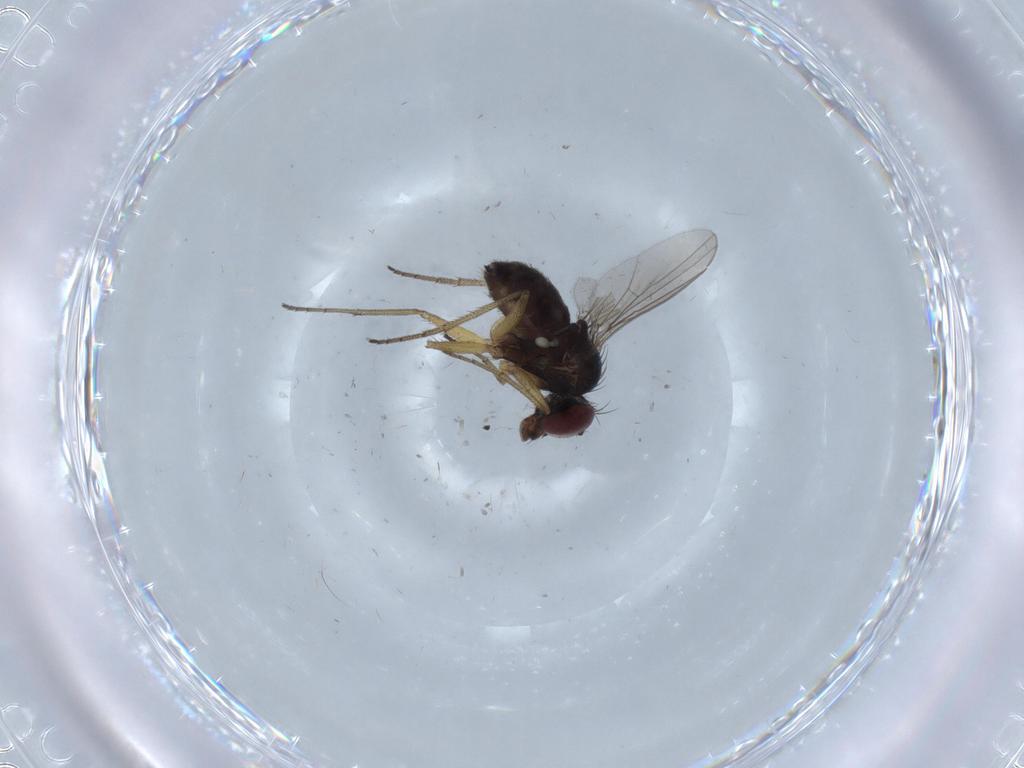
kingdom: Animalia
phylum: Arthropoda
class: Insecta
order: Diptera
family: Dolichopodidae
